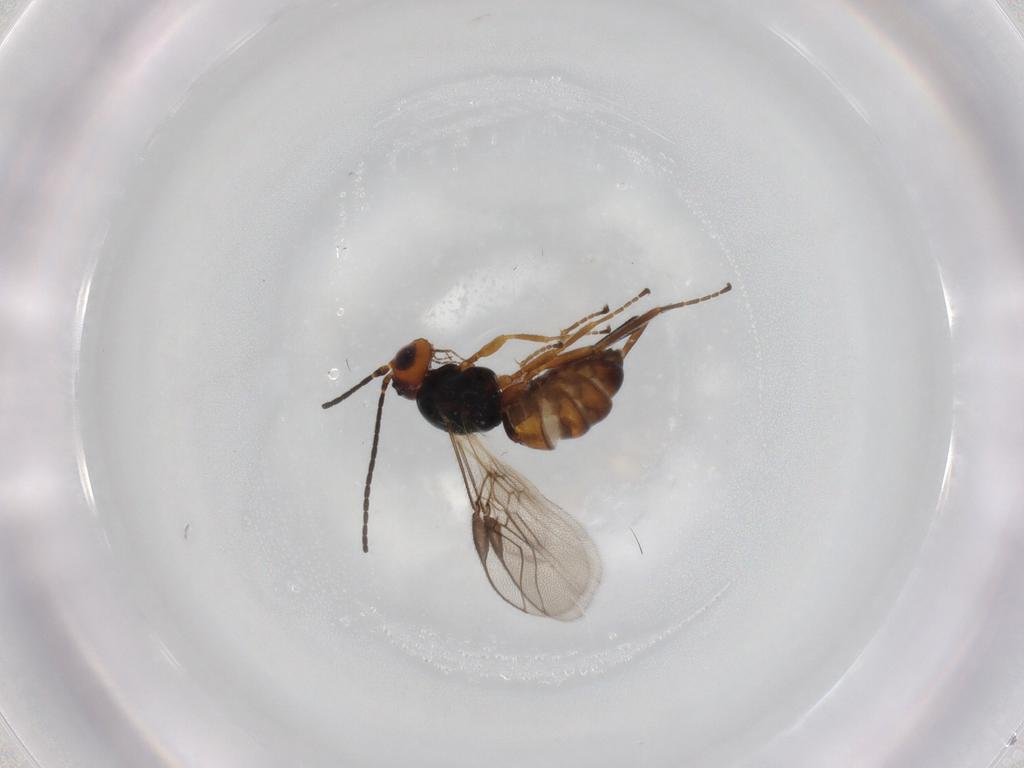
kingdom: Animalia
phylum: Arthropoda
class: Insecta
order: Hymenoptera
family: Braconidae
